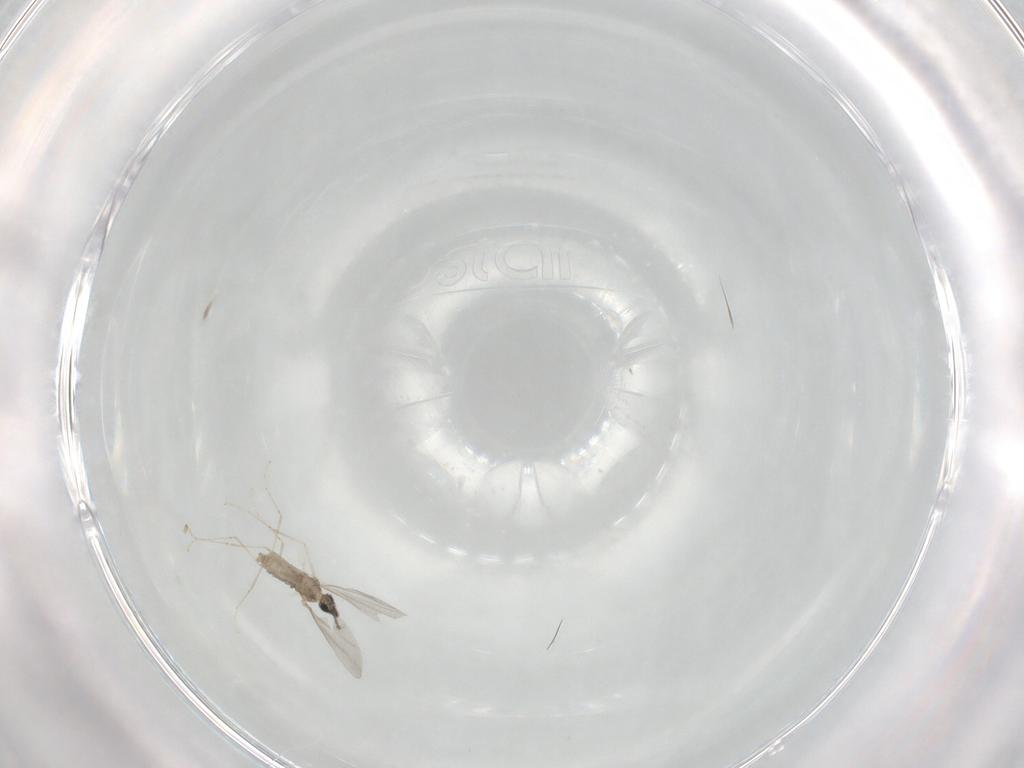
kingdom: Animalia
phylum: Arthropoda
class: Insecta
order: Diptera
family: Cecidomyiidae
